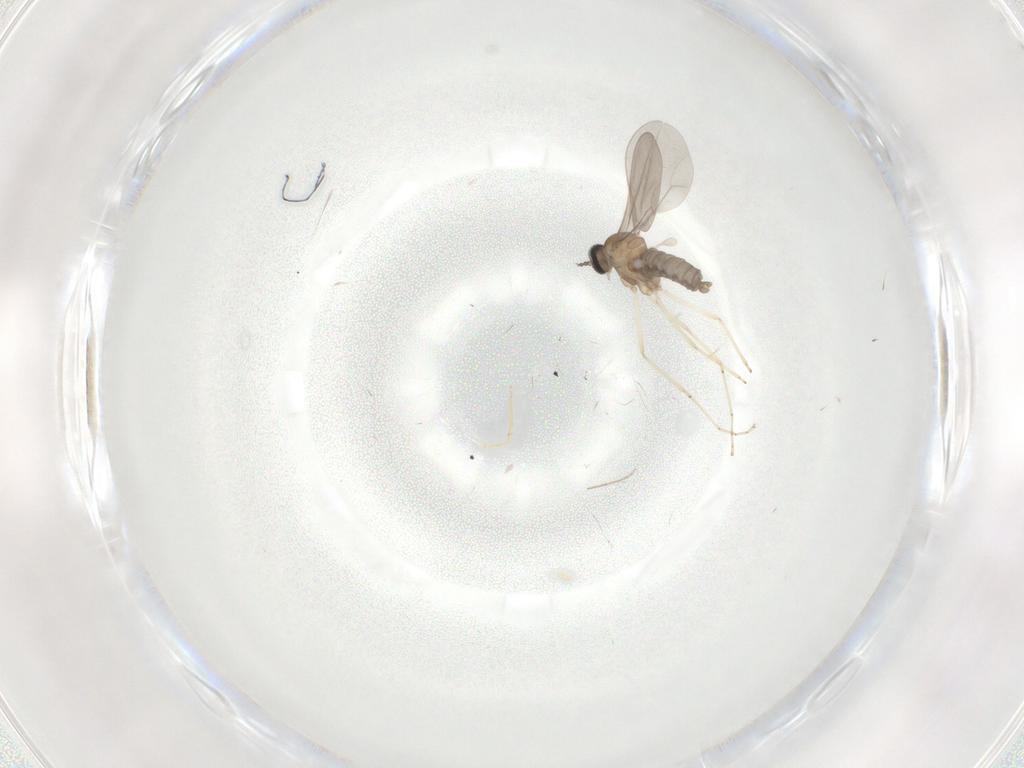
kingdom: Animalia
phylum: Arthropoda
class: Insecta
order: Diptera
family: Chironomidae
